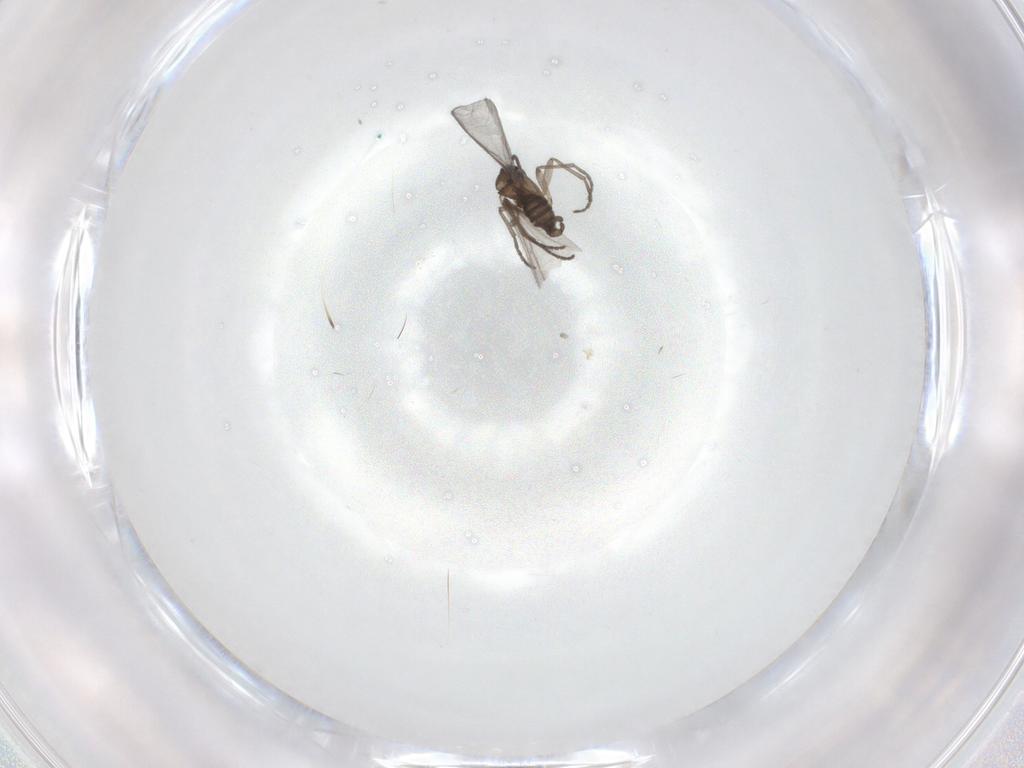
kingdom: Animalia
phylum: Arthropoda
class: Insecta
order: Diptera
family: Sciaridae
